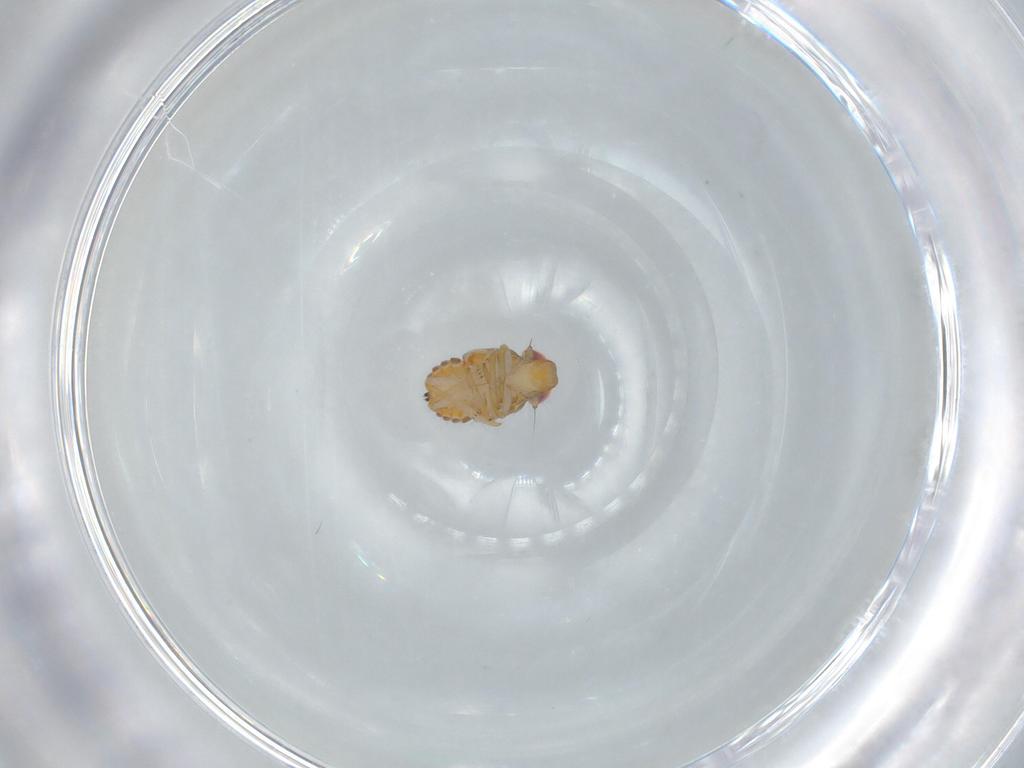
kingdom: Animalia
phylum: Arthropoda
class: Insecta
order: Hemiptera
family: Issidae
